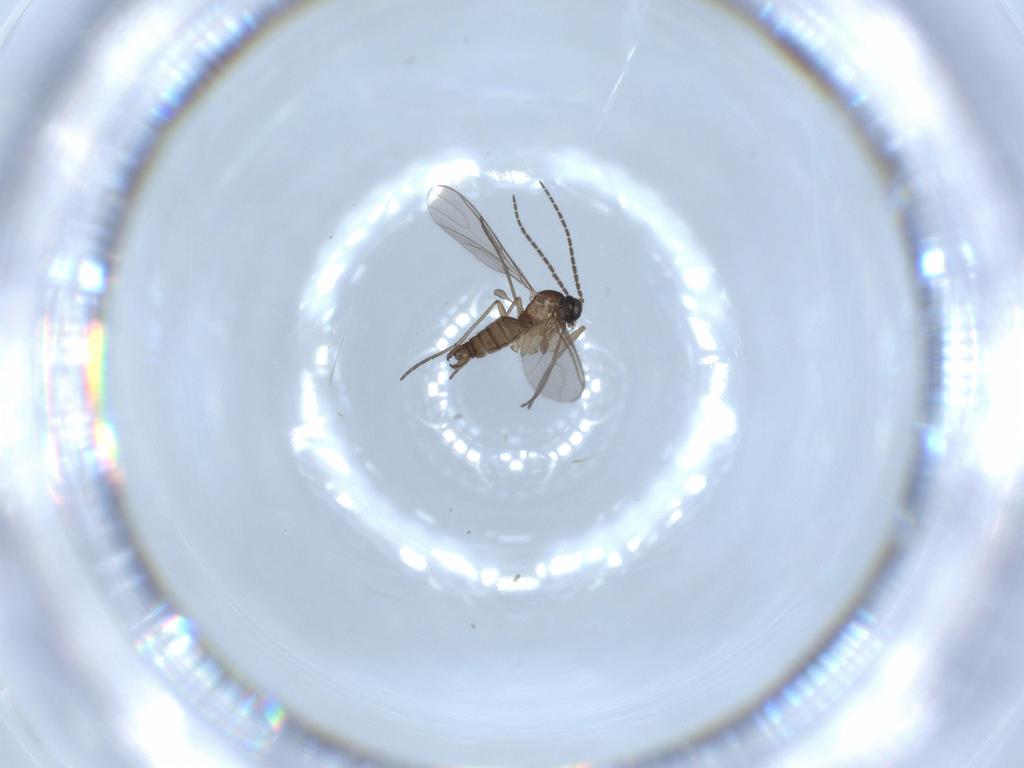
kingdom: Animalia
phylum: Arthropoda
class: Insecta
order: Diptera
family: Sciaridae
